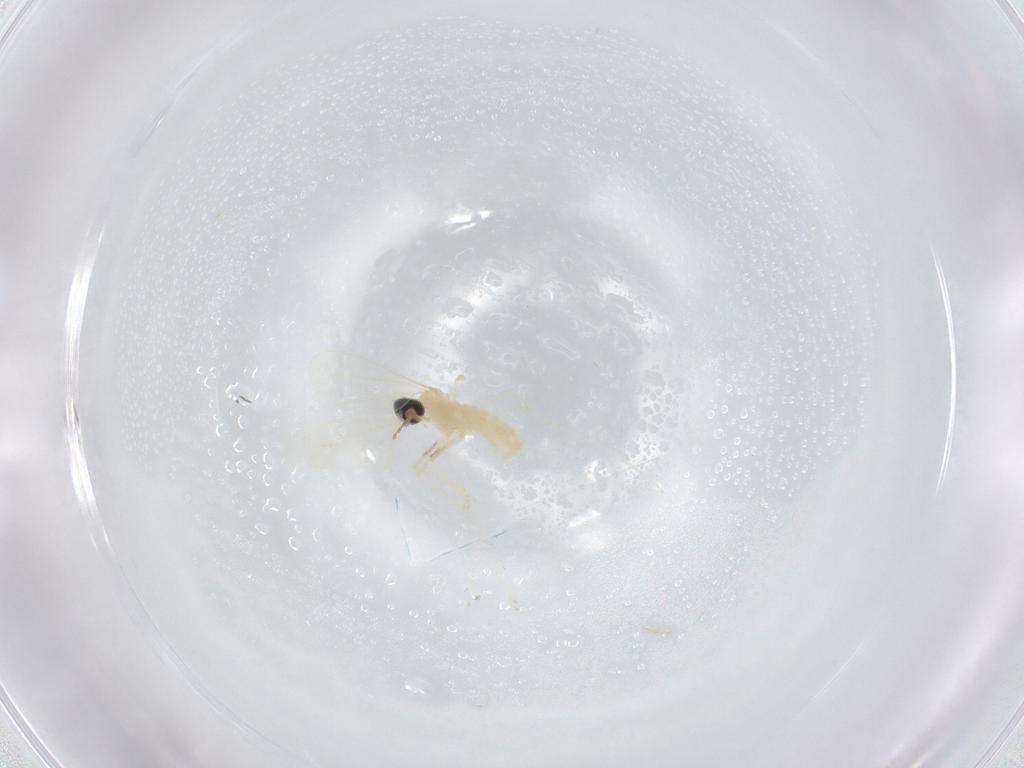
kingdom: Animalia
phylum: Arthropoda
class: Insecta
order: Diptera
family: Cecidomyiidae
